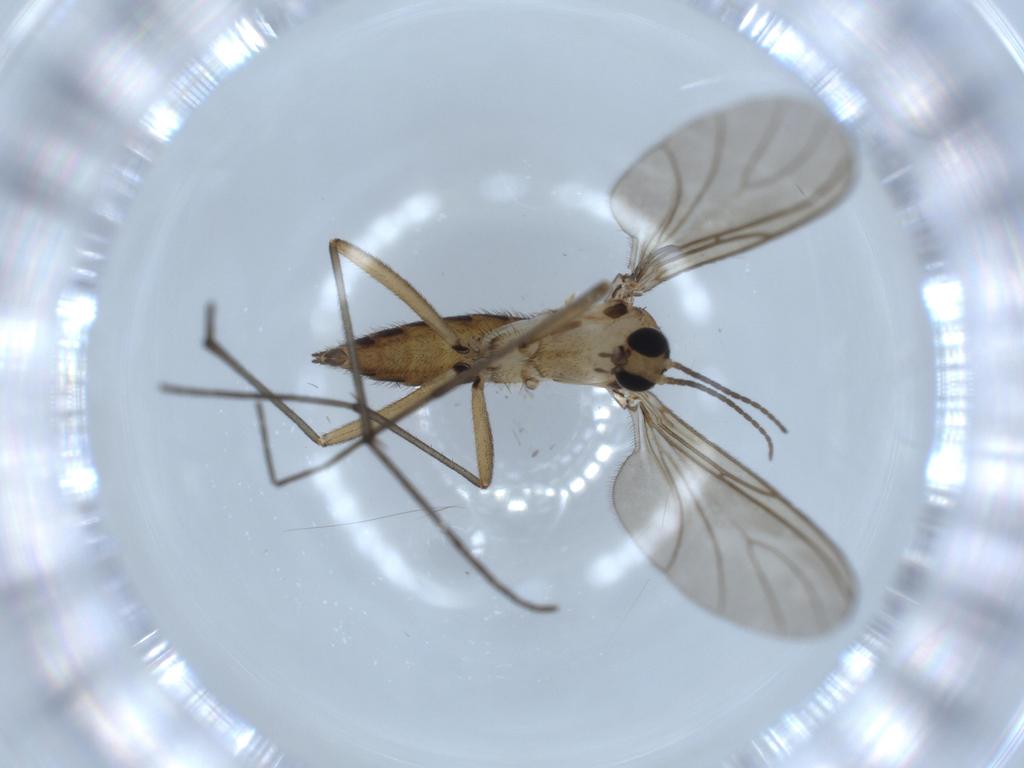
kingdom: Animalia
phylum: Arthropoda
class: Insecta
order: Diptera
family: Sciaridae
